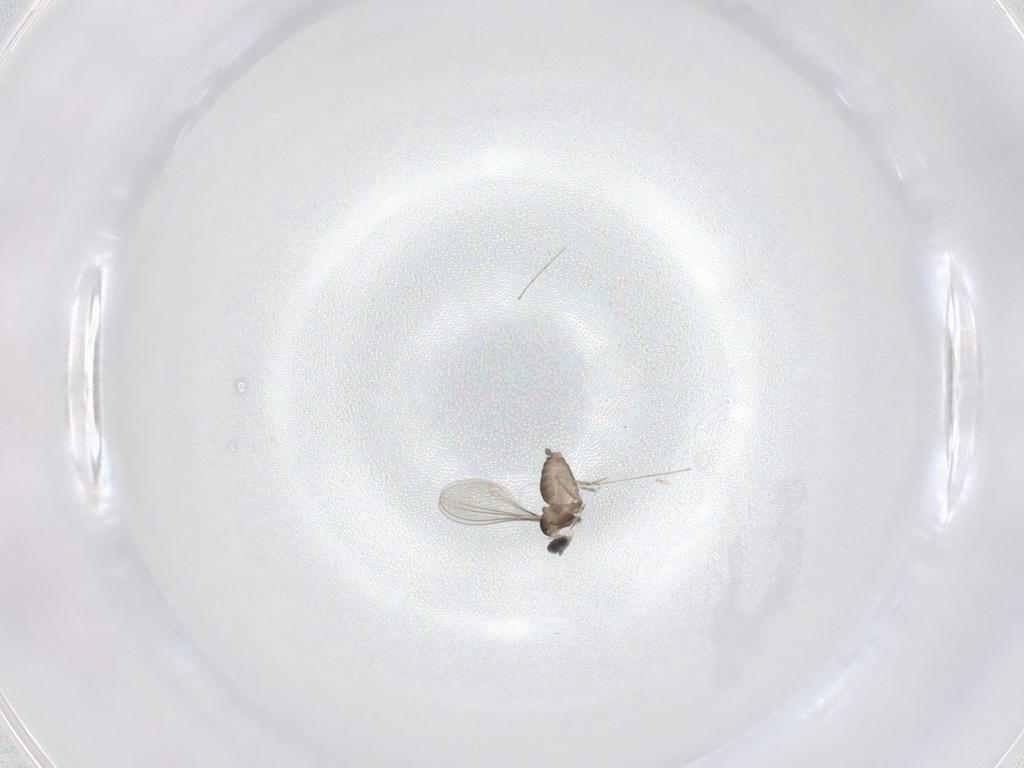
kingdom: Animalia
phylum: Arthropoda
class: Insecta
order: Diptera
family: Cecidomyiidae
